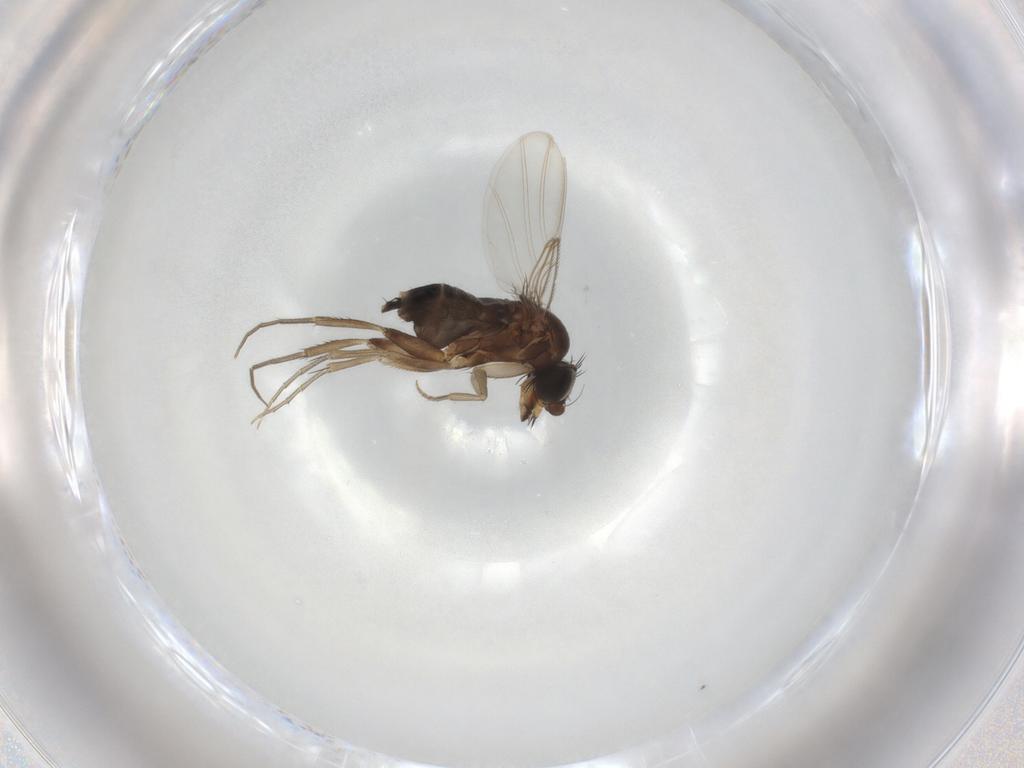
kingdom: Animalia
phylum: Arthropoda
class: Insecta
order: Diptera
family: Phoridae
